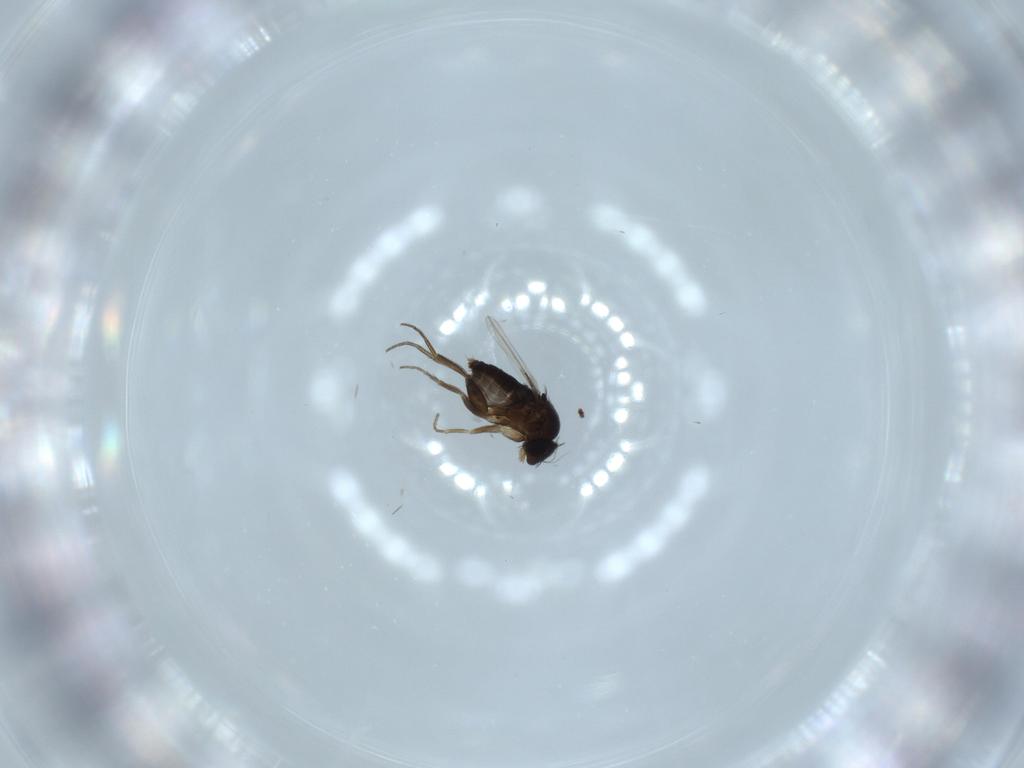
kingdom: Animalia
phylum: Arthropoda
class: Insecta
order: Diptera
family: Phoridae
